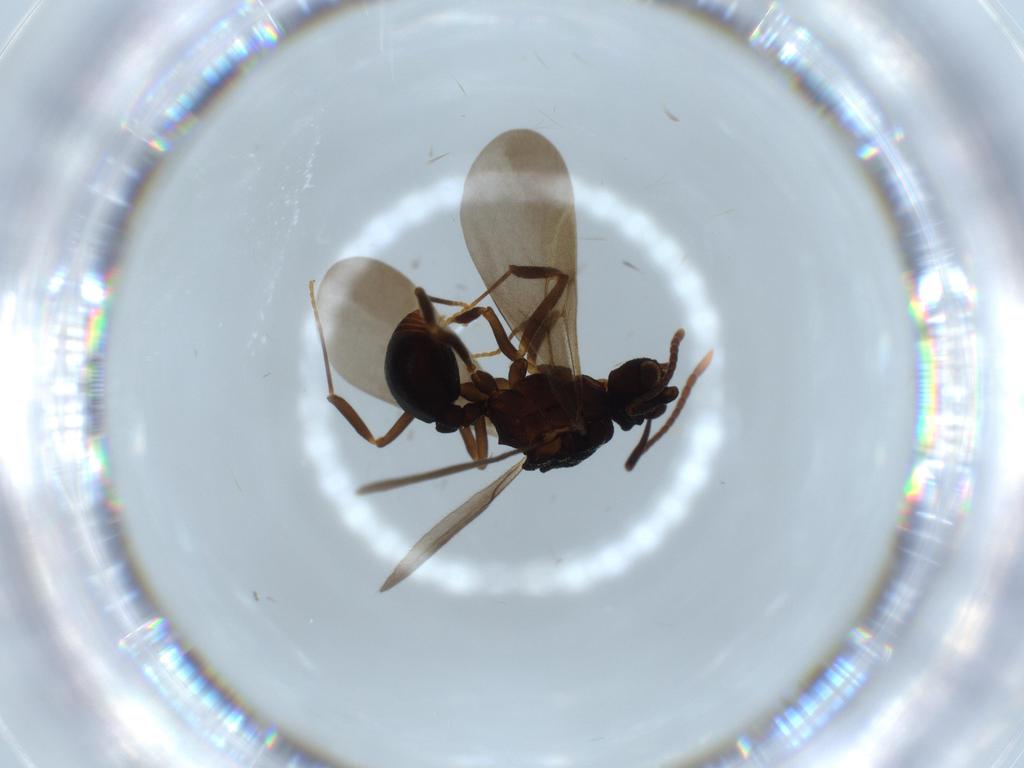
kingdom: Animalia
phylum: Arthropoda
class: Insecta
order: Hymenoptera
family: Formicidae
